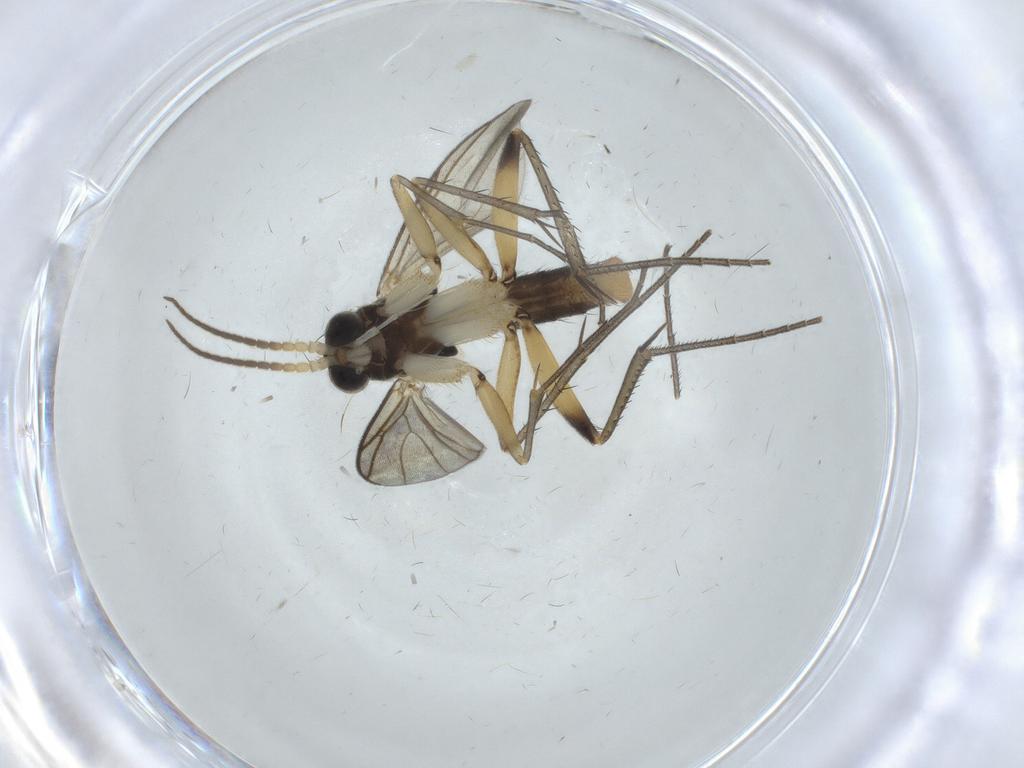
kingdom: Animalia
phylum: Arthropoda
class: Insecta
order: Diptera
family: Mycetophilidae
